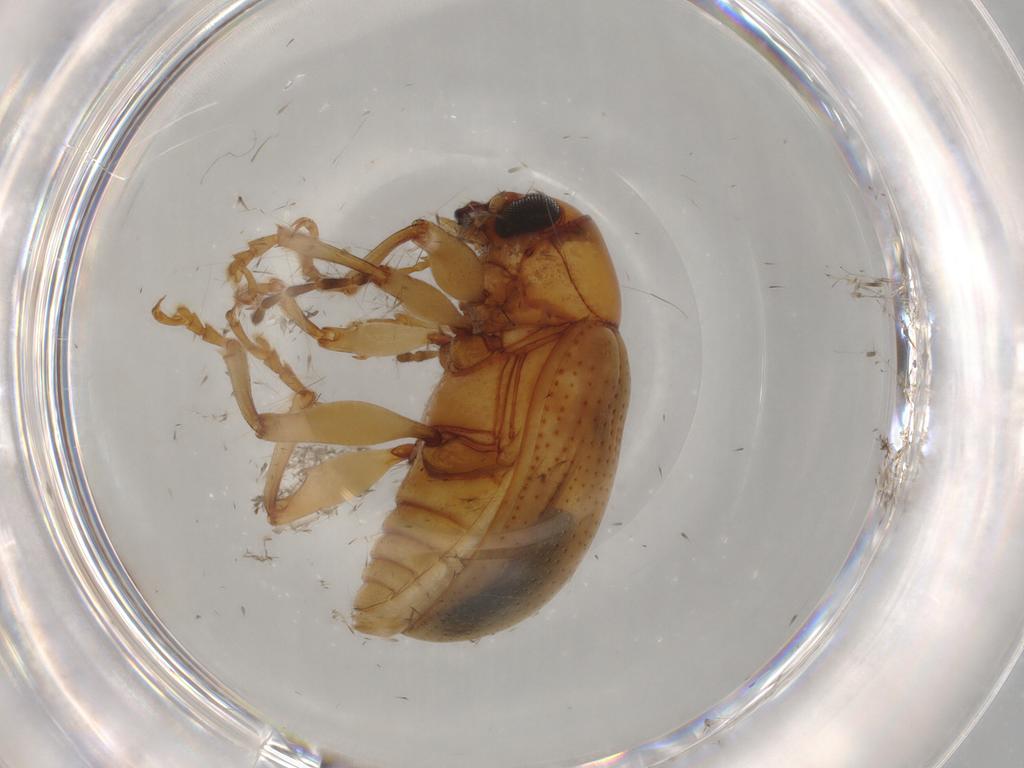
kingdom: Animalia
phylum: Arthropoda
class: Insecta
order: Coleoptera
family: Chrysomelidae
